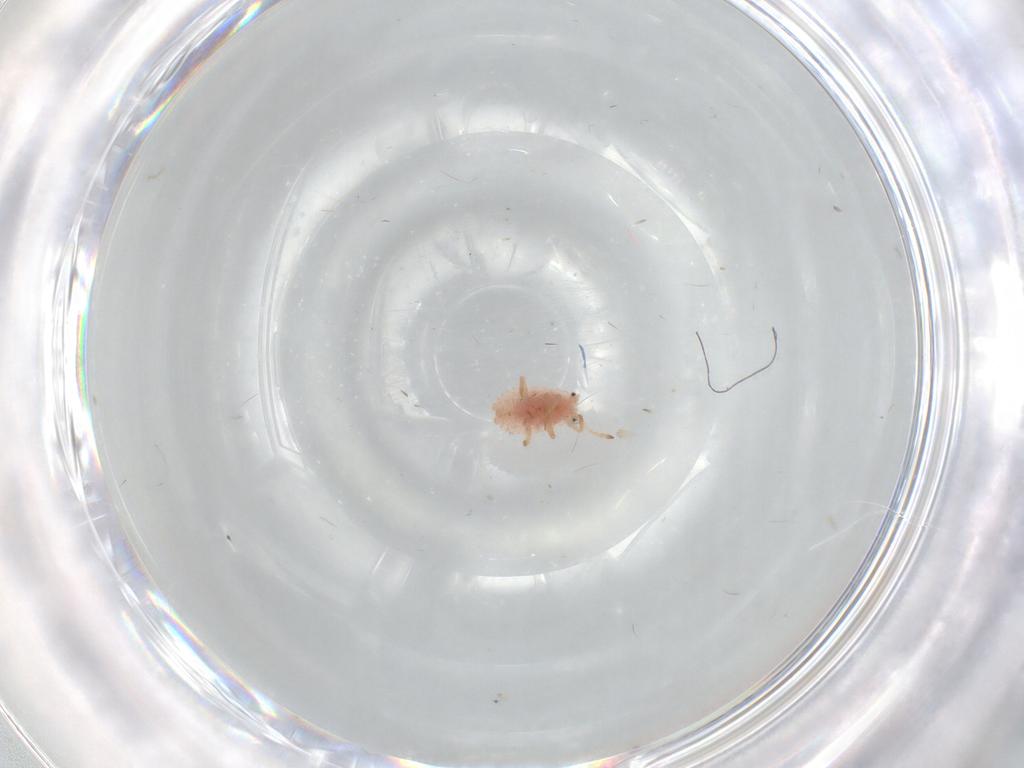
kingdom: Animalia
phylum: Arthropoda
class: Insecta
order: Hemiptera
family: Coccoidea_incertae_sedis
